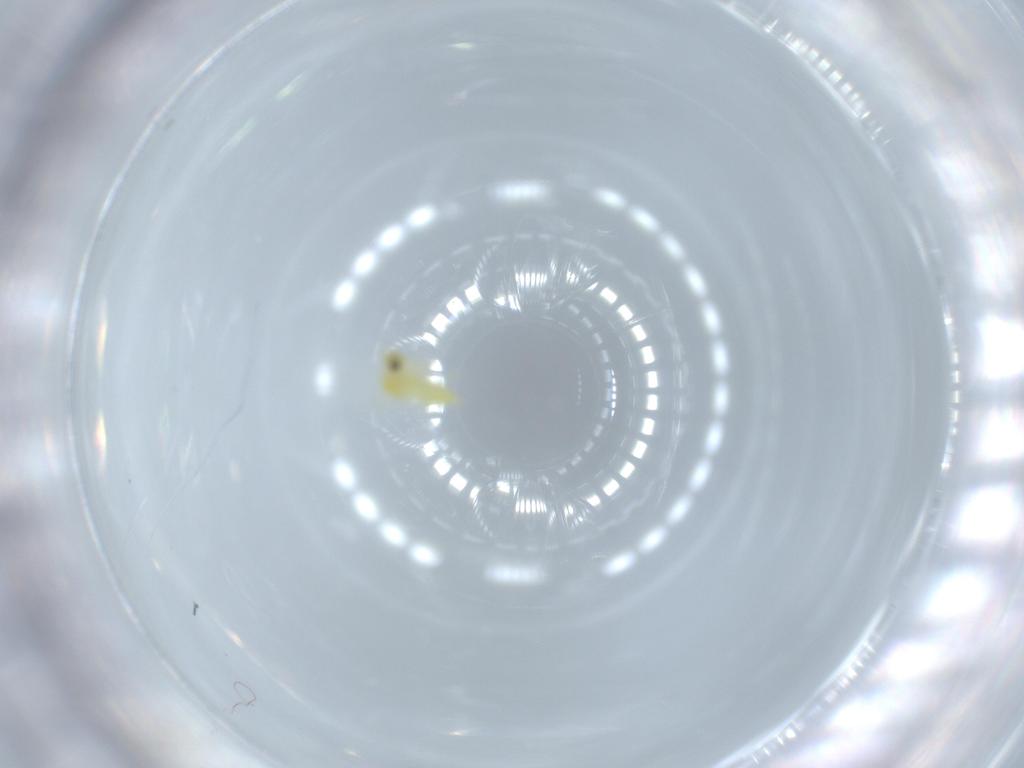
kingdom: Animalia
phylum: Arthropoda
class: Insecta
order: Hemiptera
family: Aleyrodidae
